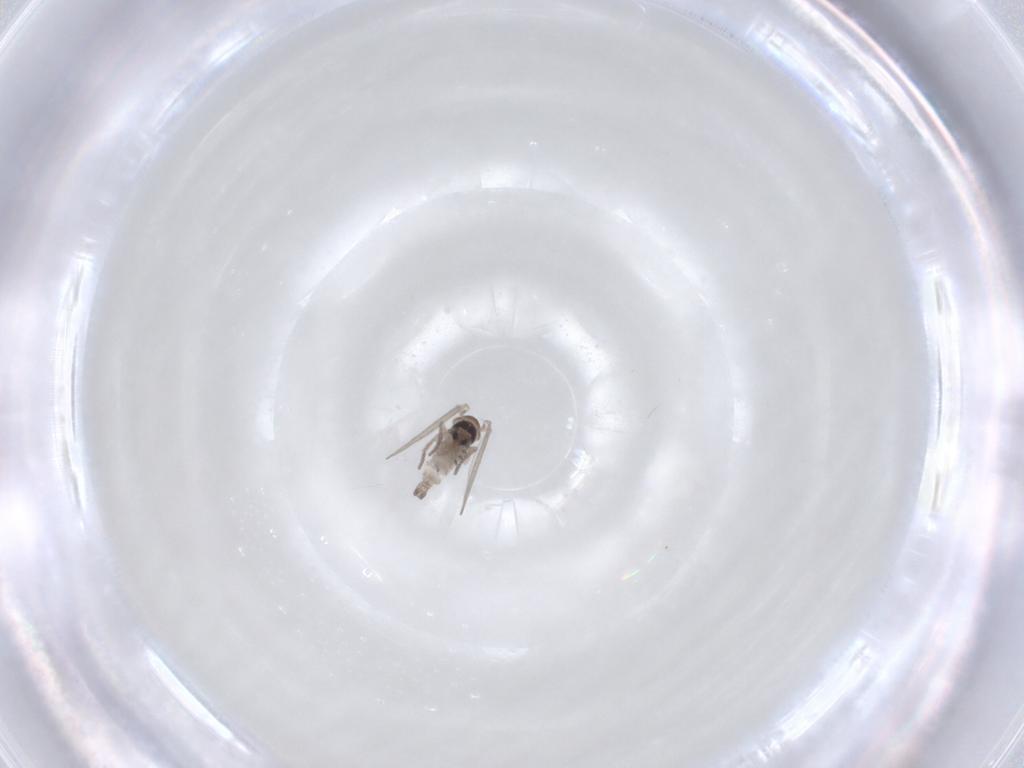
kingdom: Animalia
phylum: Arthropoda
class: Insecta
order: Diptera
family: Psychodidae
